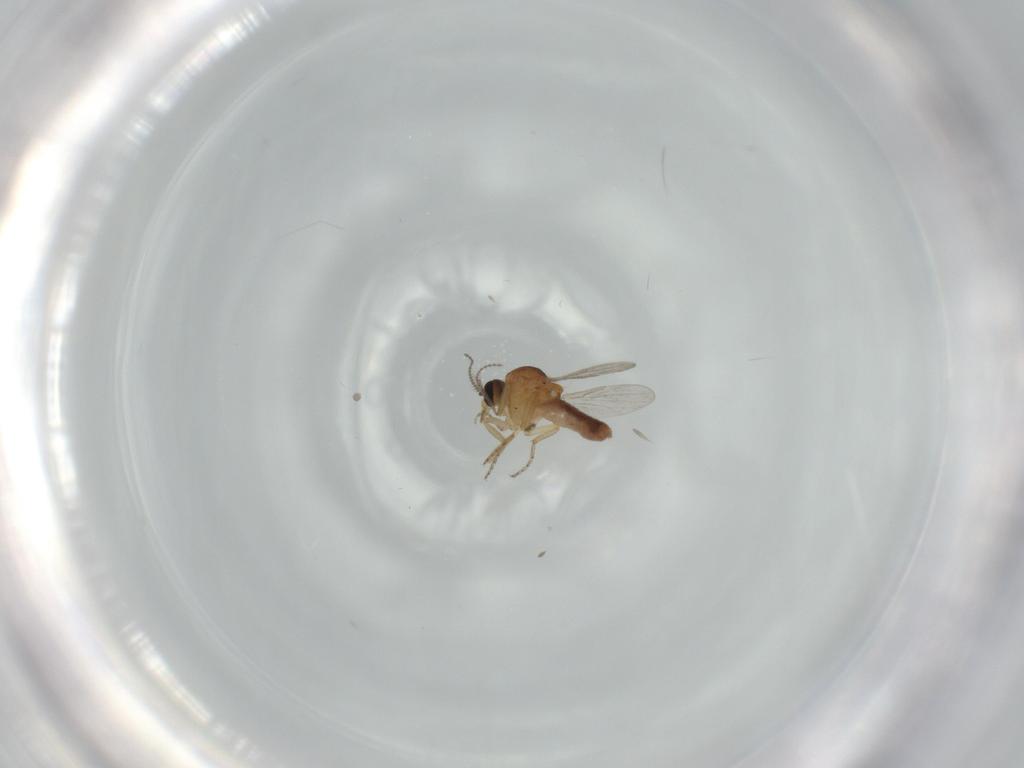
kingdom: Animalia
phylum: Arthropoda
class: Insecta
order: Diptera
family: Ceratopogonidae
